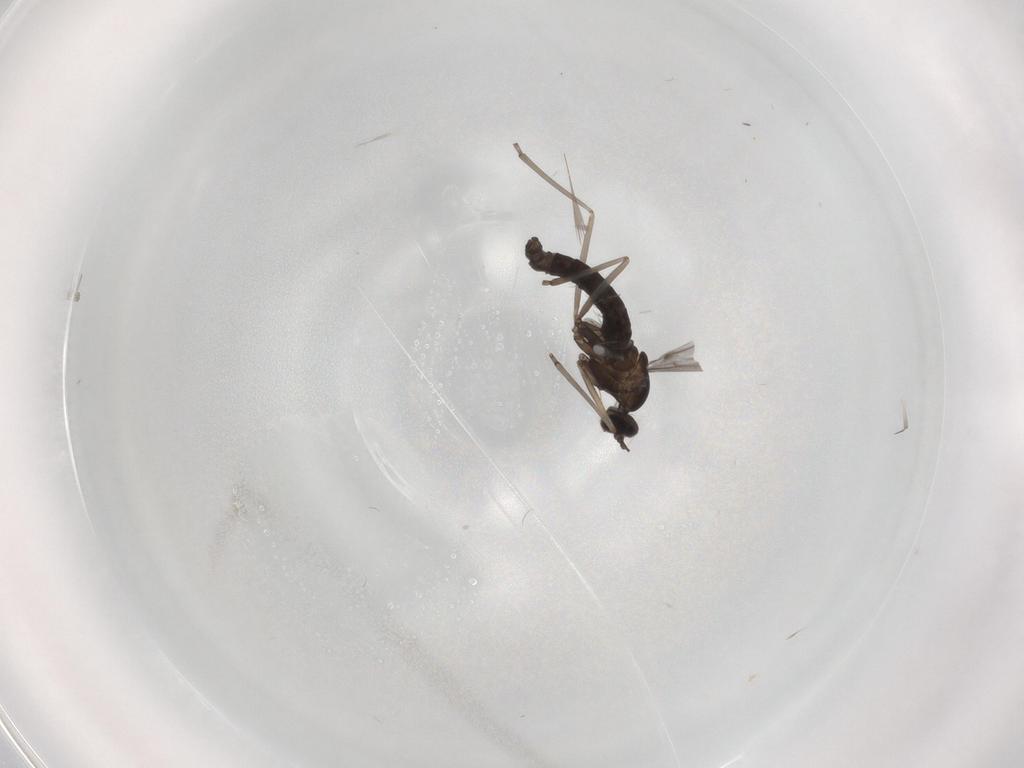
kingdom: Animalia
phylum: Arthropoda
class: Insecta
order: Diptera
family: Cecidomyiidae
